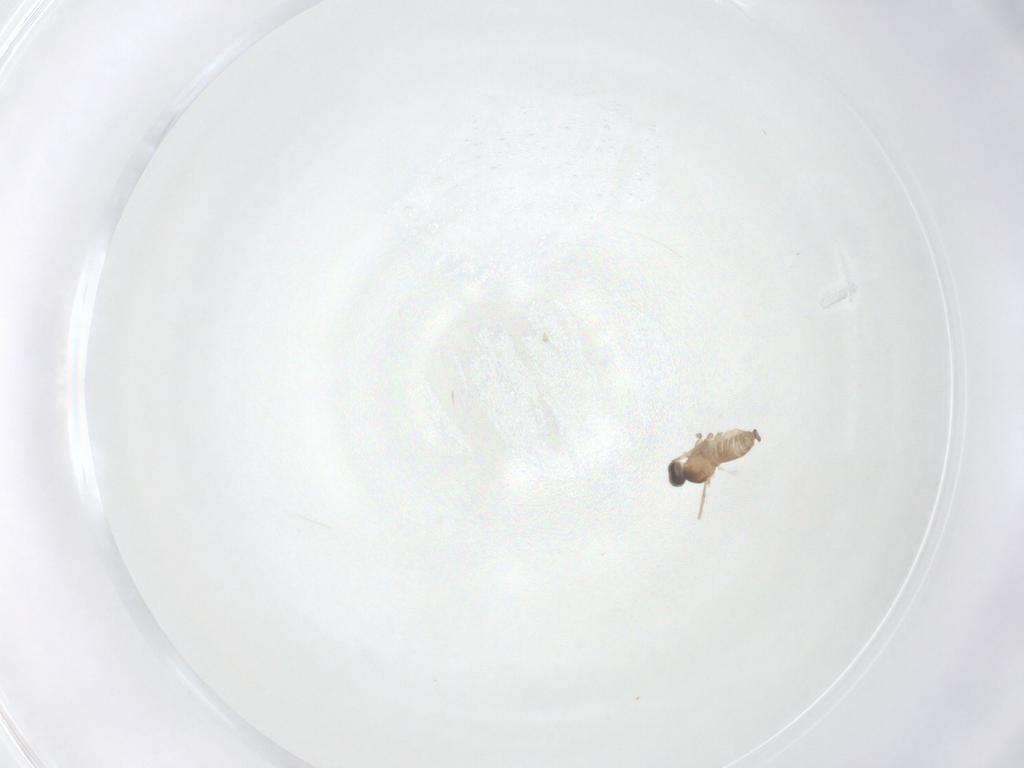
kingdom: Animalia
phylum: Arthropoda
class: Insecta
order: Diptera
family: Cecidomyiidae
